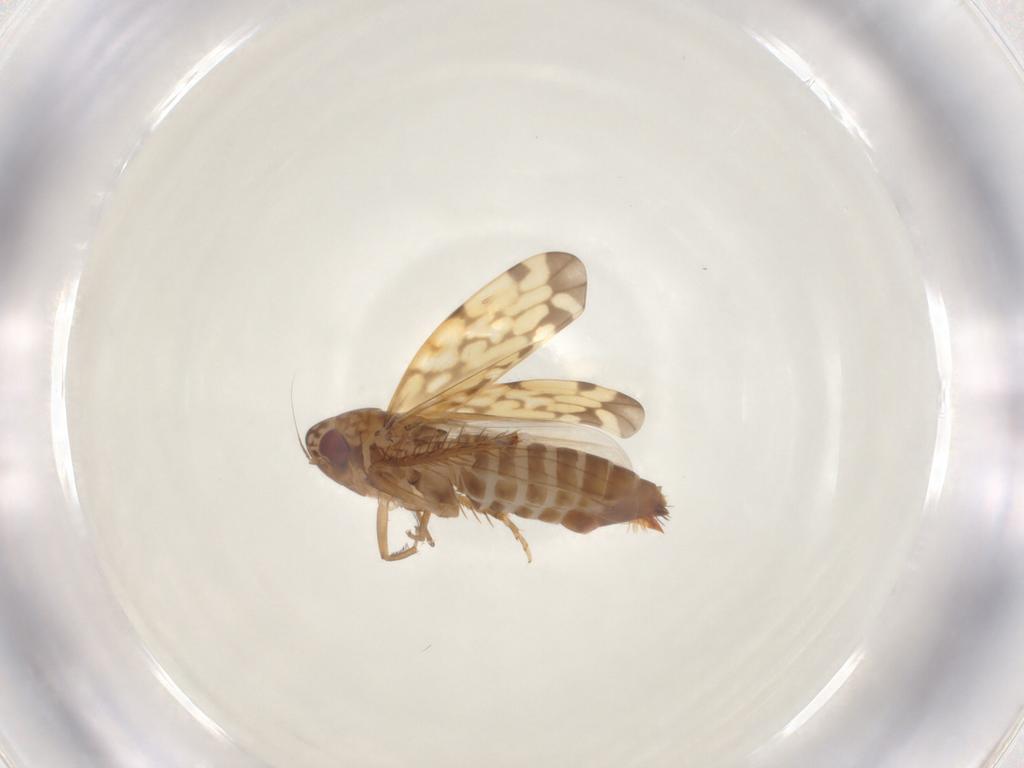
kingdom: Animalia
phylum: Arthropoda
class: Insecta
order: Hemiptera
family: Cicadellidae
